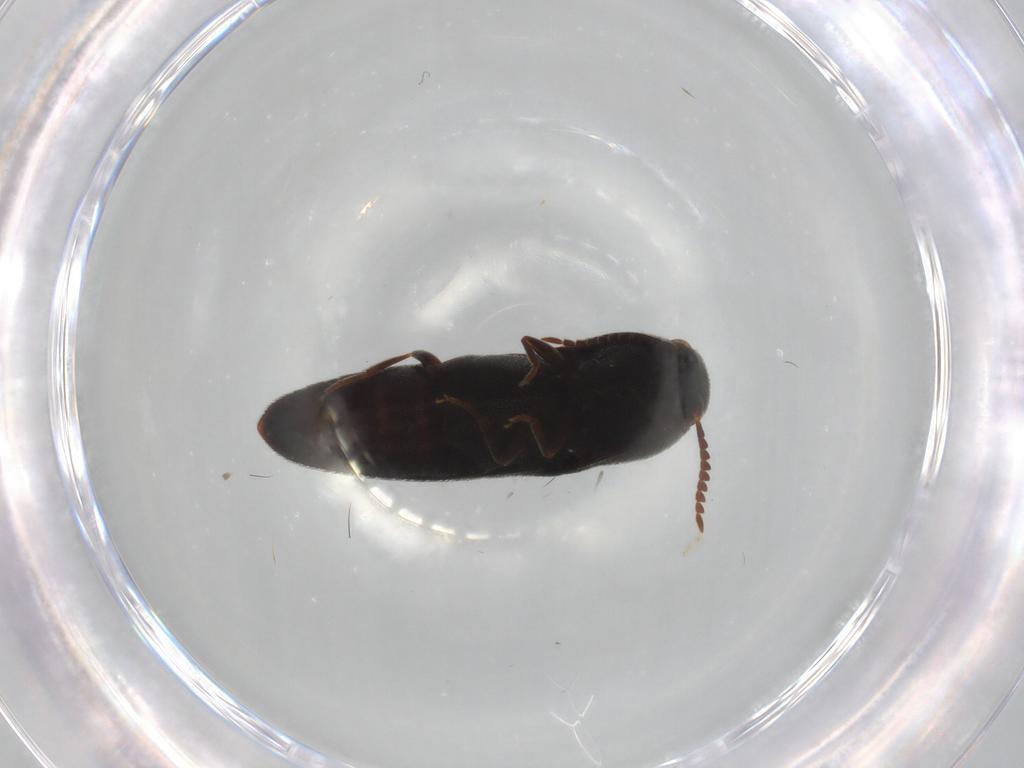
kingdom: Animalia
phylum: Arthropoda
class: Insecta
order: Coleoptera
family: Eucnemidae
